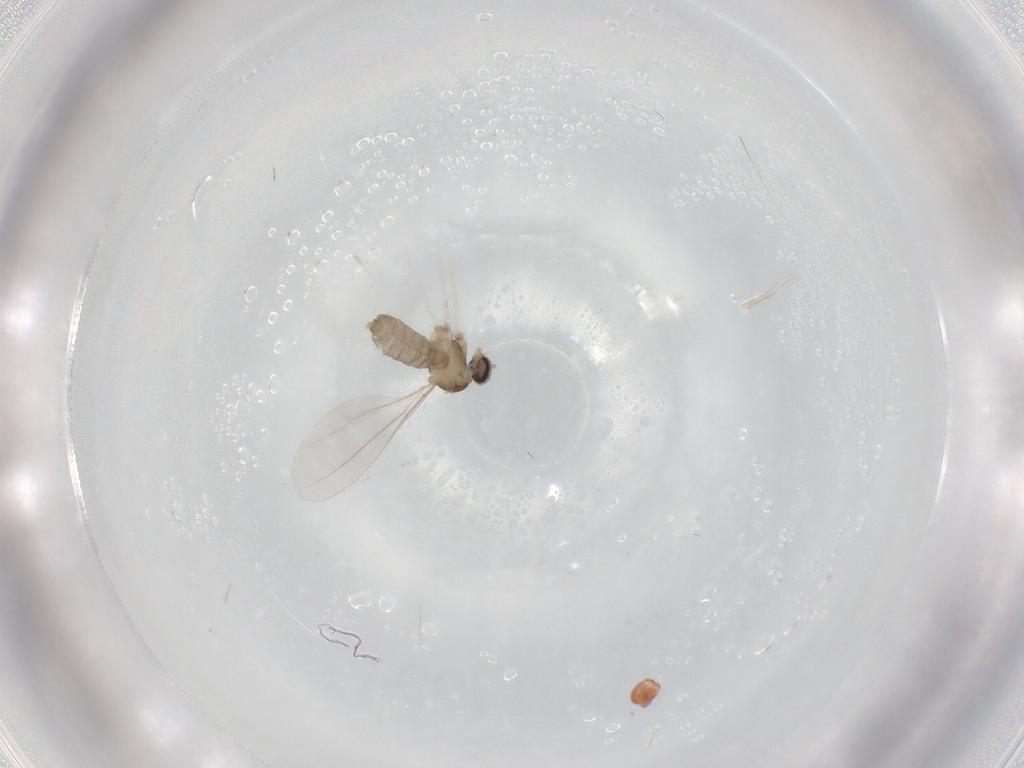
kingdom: Animalia
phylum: Arthropoda
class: Insecta
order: Diptera
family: Cecidomyiidae
